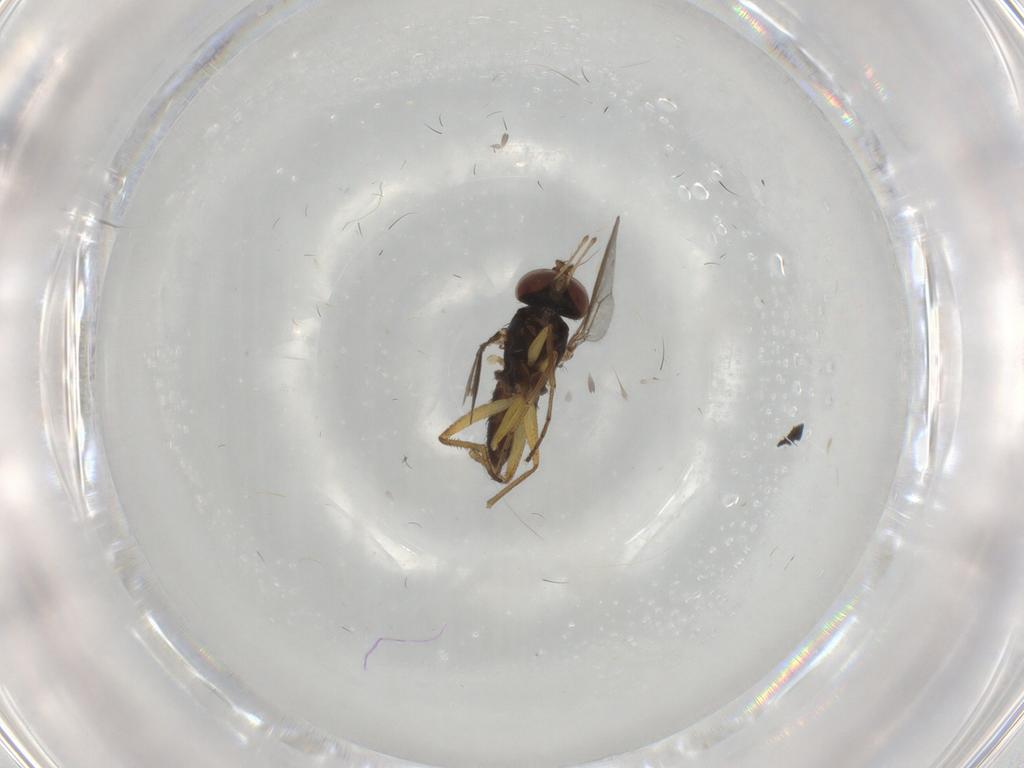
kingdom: Animalia
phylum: Arthropoda
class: Insecta
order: Diptera
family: Dolichopodidae
